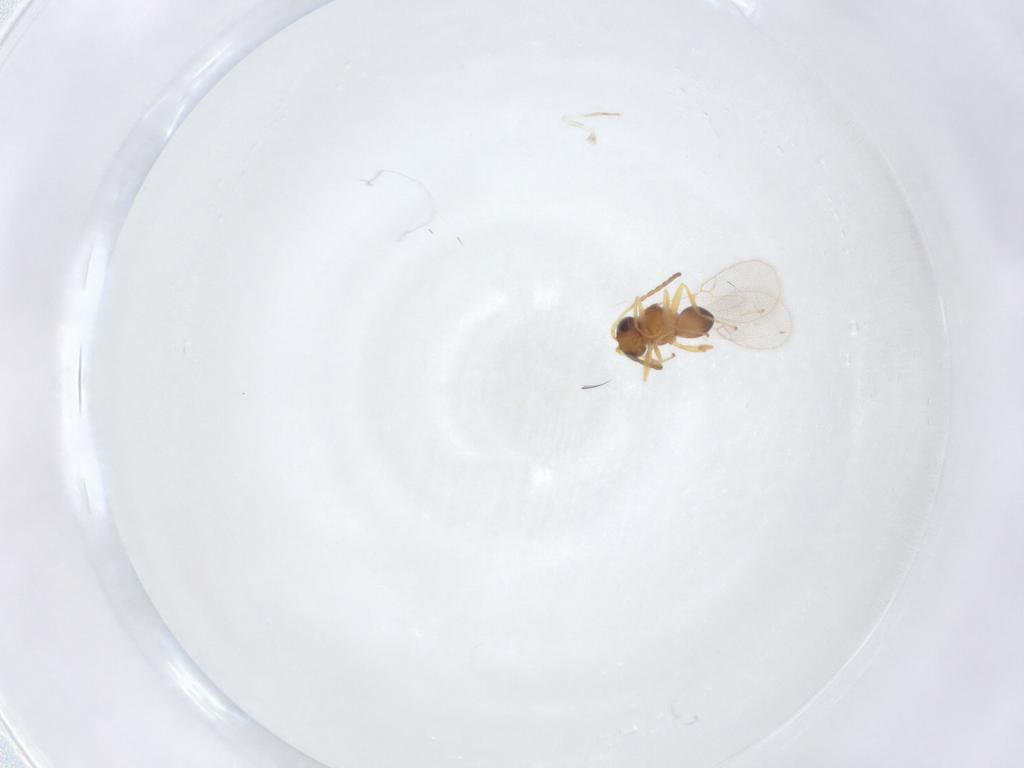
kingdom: Animalia
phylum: Arthropoda
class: Insecta
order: Hymenoptera
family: Figitidae
